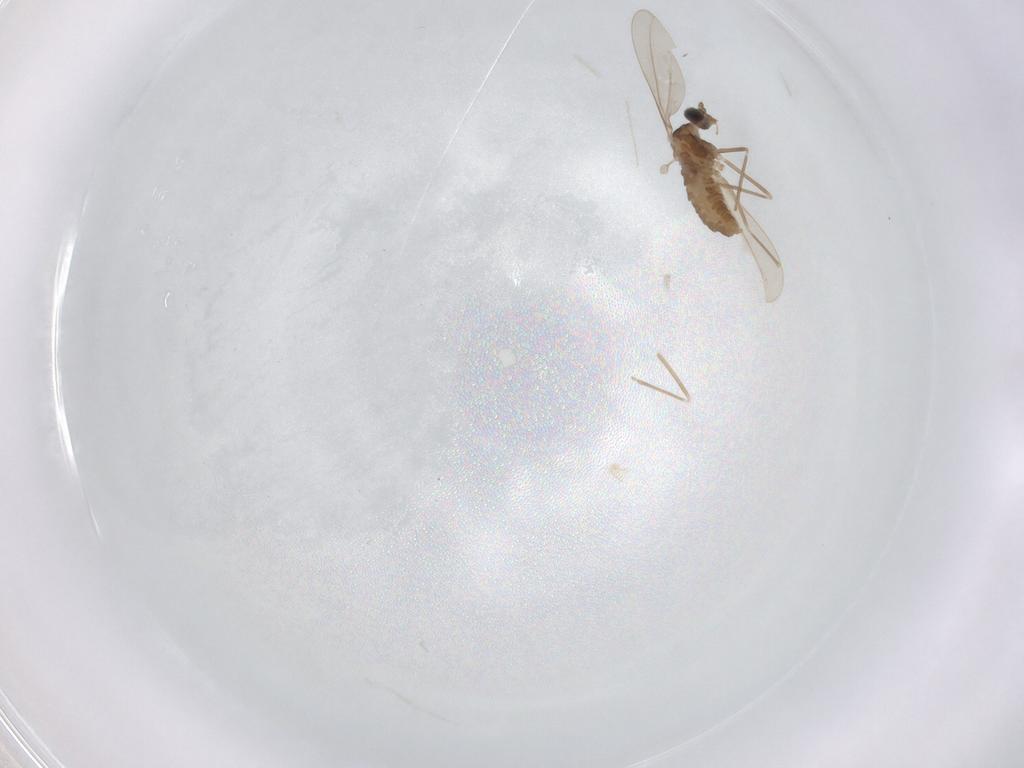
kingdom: Animalia
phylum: Arthropoda
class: Insecta
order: Diptera
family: Cecidomyiidae
